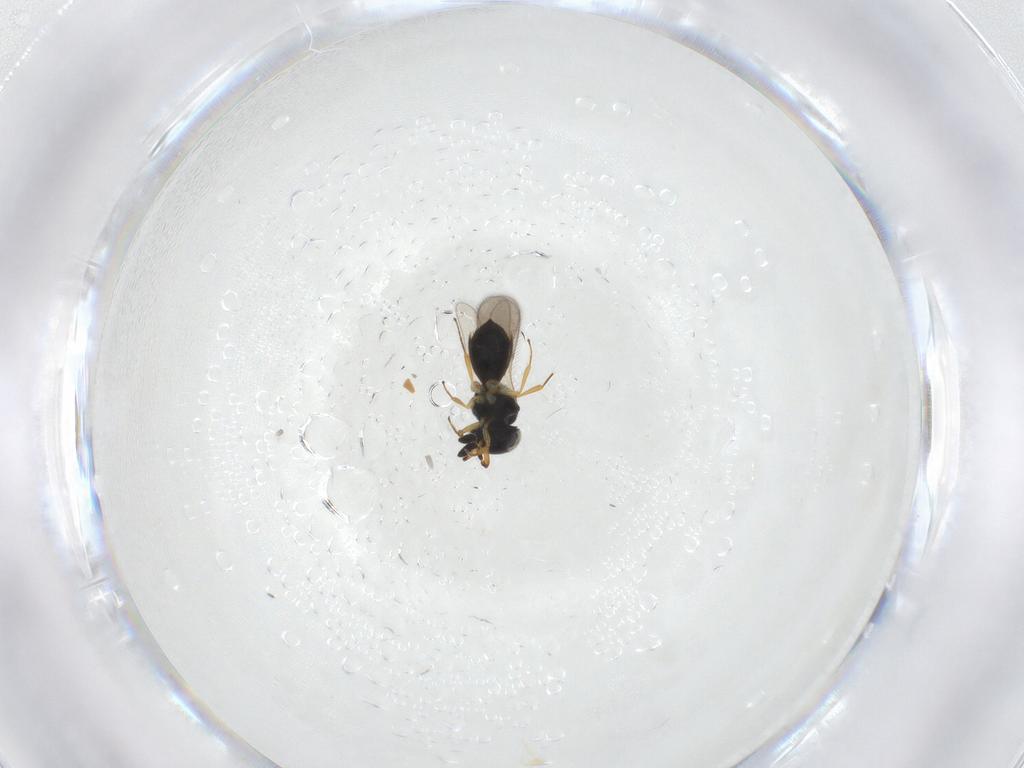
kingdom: Animalia
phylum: Arthropoda
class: Insecta
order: Hymenoptera
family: Scelionidae
